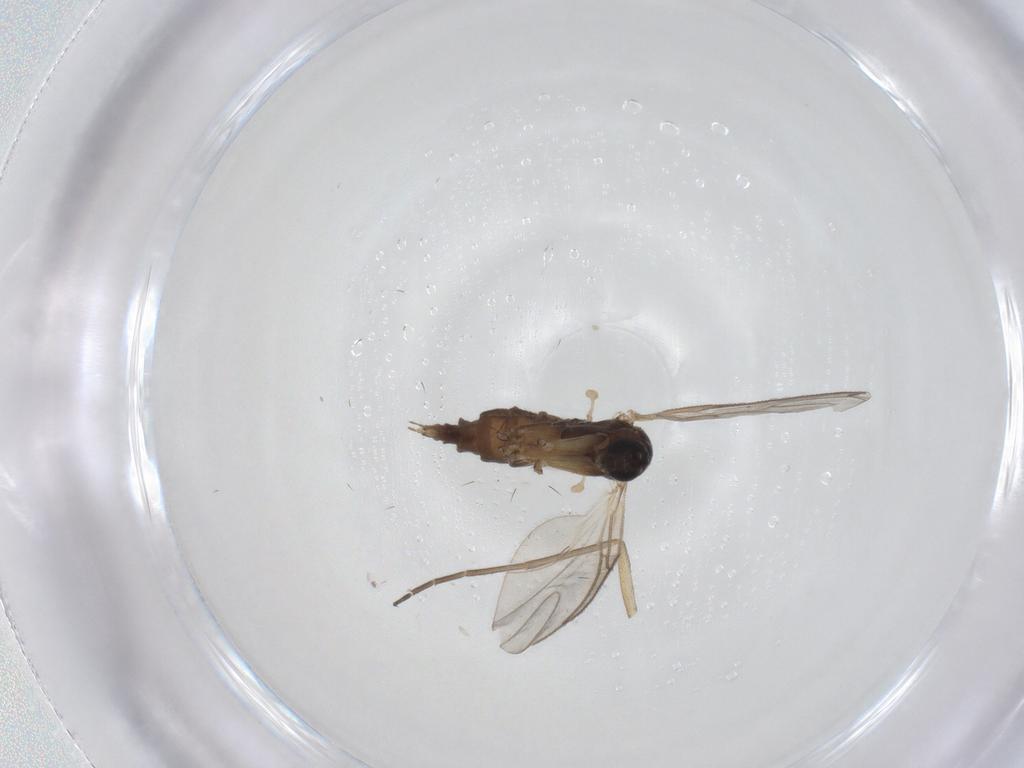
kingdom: Animalia
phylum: Arthropoda
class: Insecta
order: Diptera
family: Sciaridae
